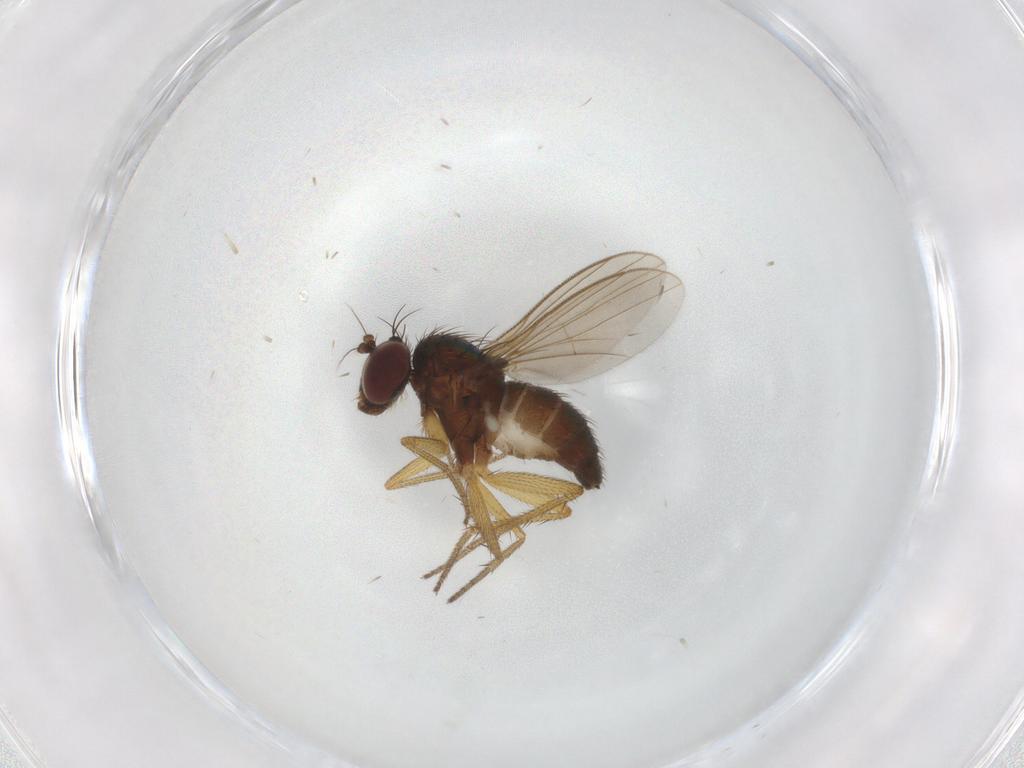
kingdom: Animalia
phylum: Arthropoda
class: Insecta
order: Diptera
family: Dolichopodidae
